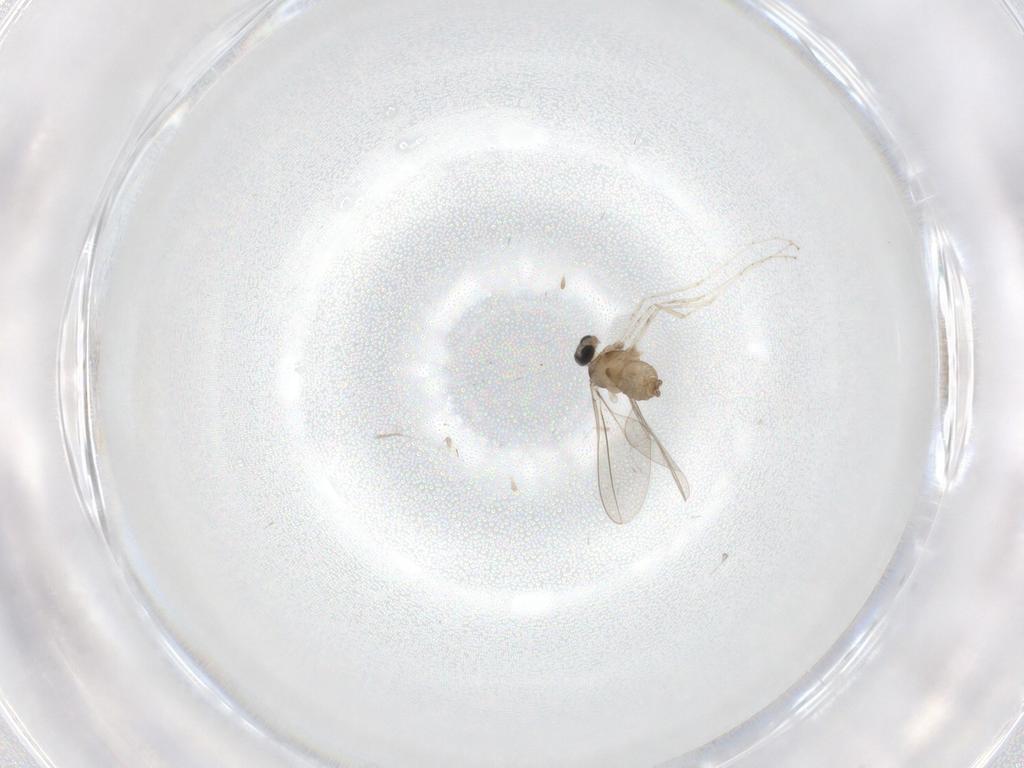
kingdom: Animalia
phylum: Arthropoda
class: Insecta
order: Diptera
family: Cecidomyiidae
